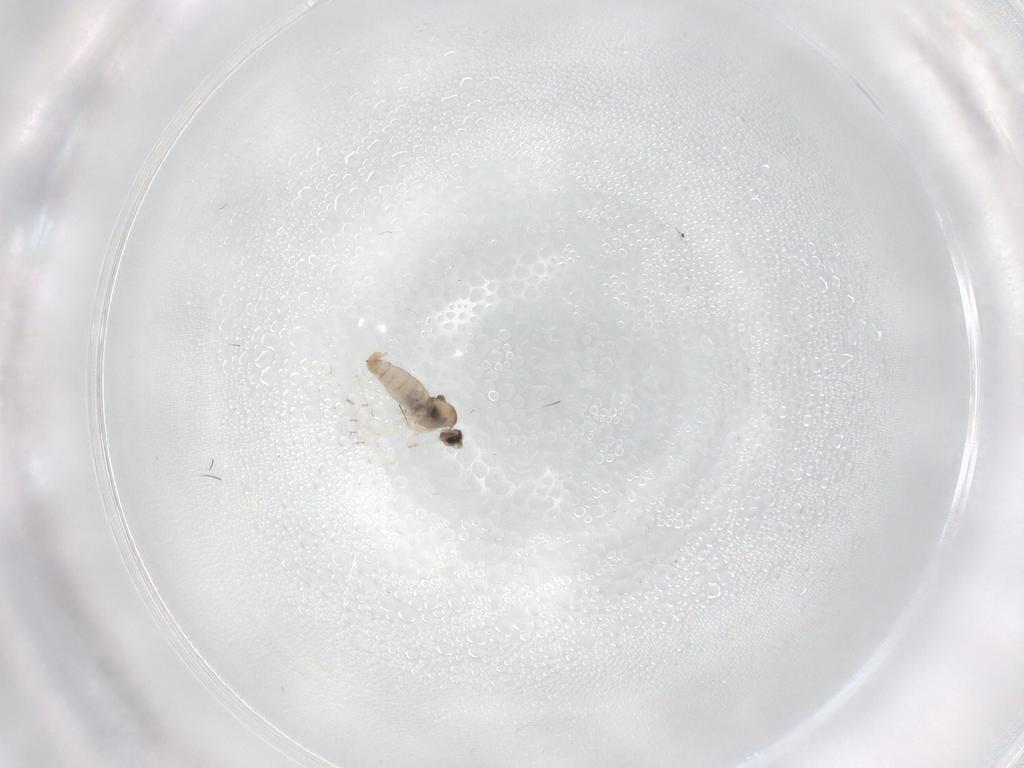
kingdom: Animalia
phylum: Arthropoda
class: Insecta
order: Diptera
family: Cecidomyiidae
